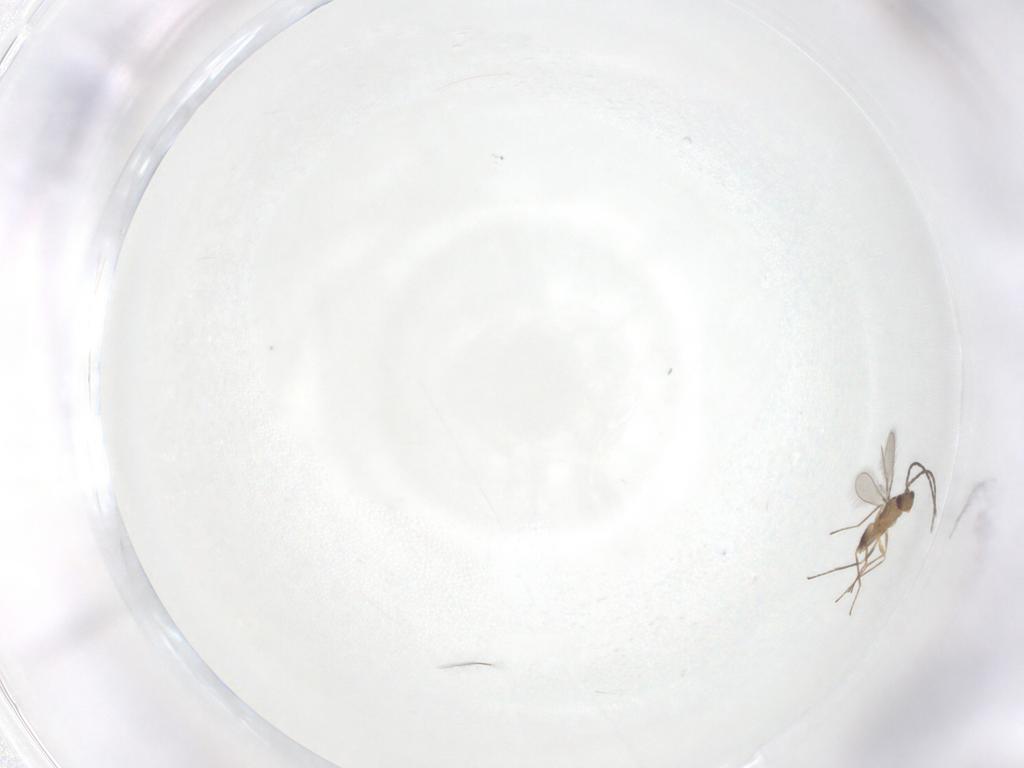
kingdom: Animalia
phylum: Arthropoda
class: Insecta
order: Hymenoptera
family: Mymaridae
